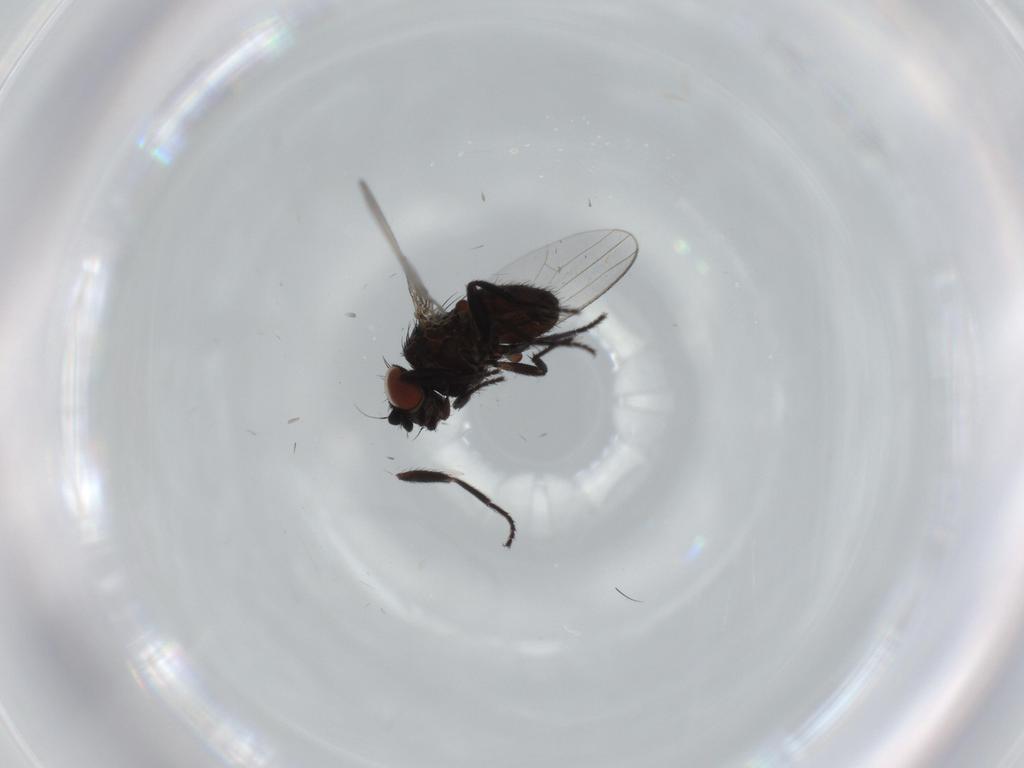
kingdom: Animalia
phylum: Arthropoda
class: Insecta
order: Diptera
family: Milichiidae
